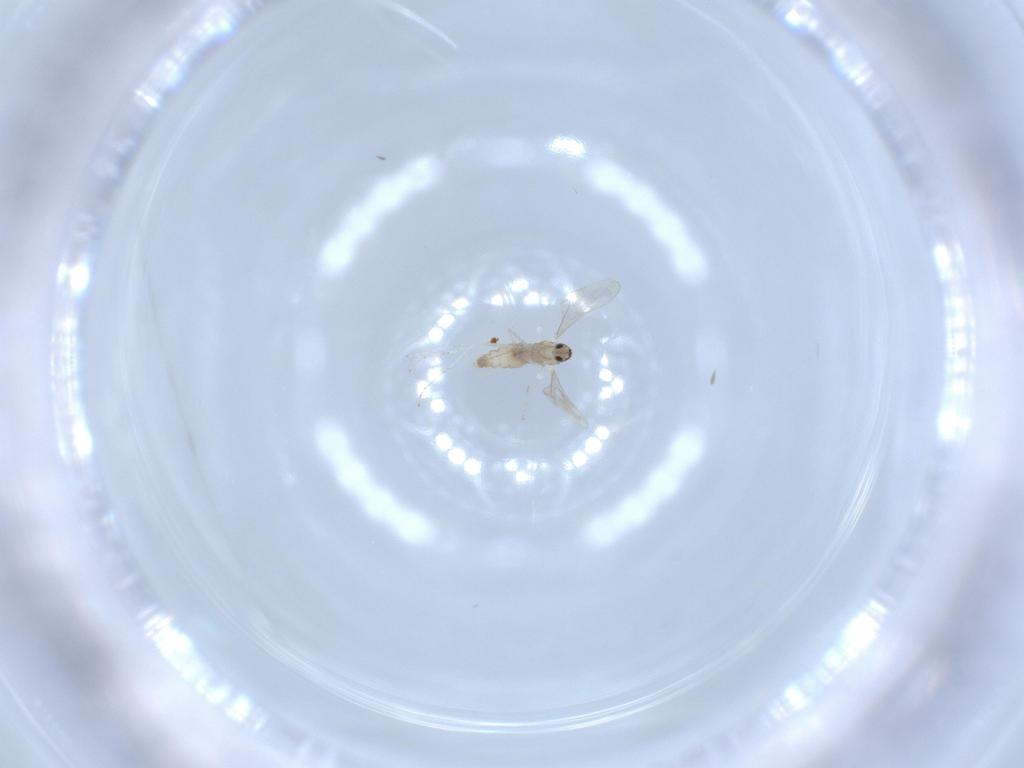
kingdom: Animalia
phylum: Arthropoda
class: Insecta
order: Diptera
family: Cecidomyiidae
